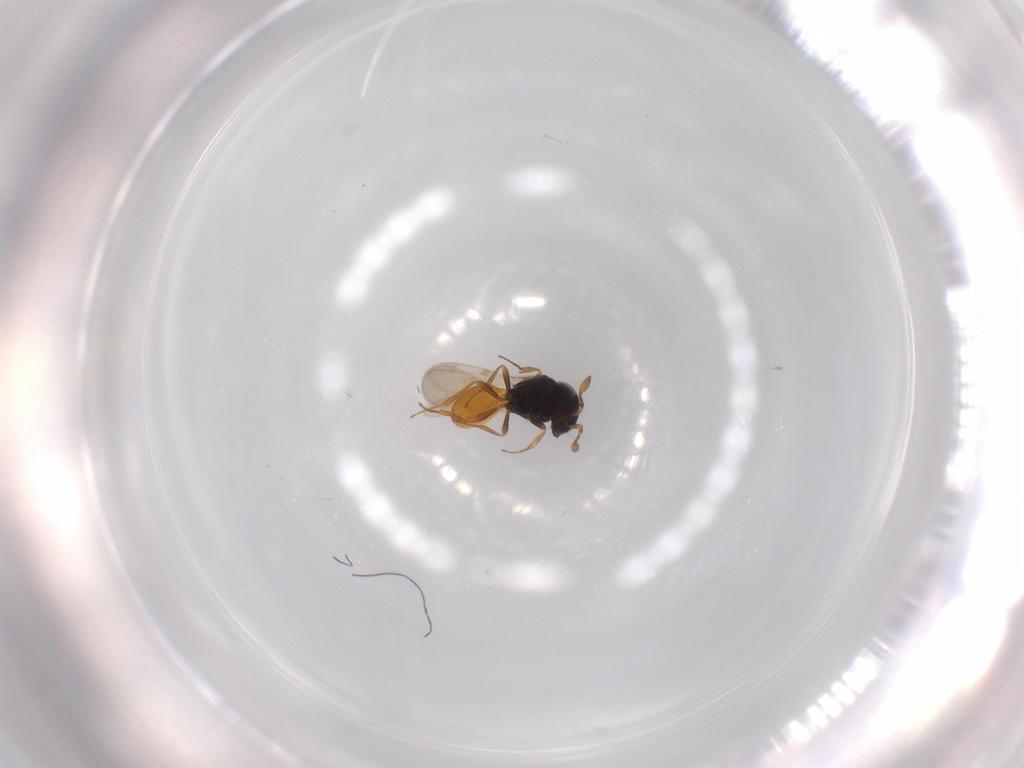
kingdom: Animalia
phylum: Arthropoda
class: Insecta
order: Hymenoptera
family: Scelionidae
